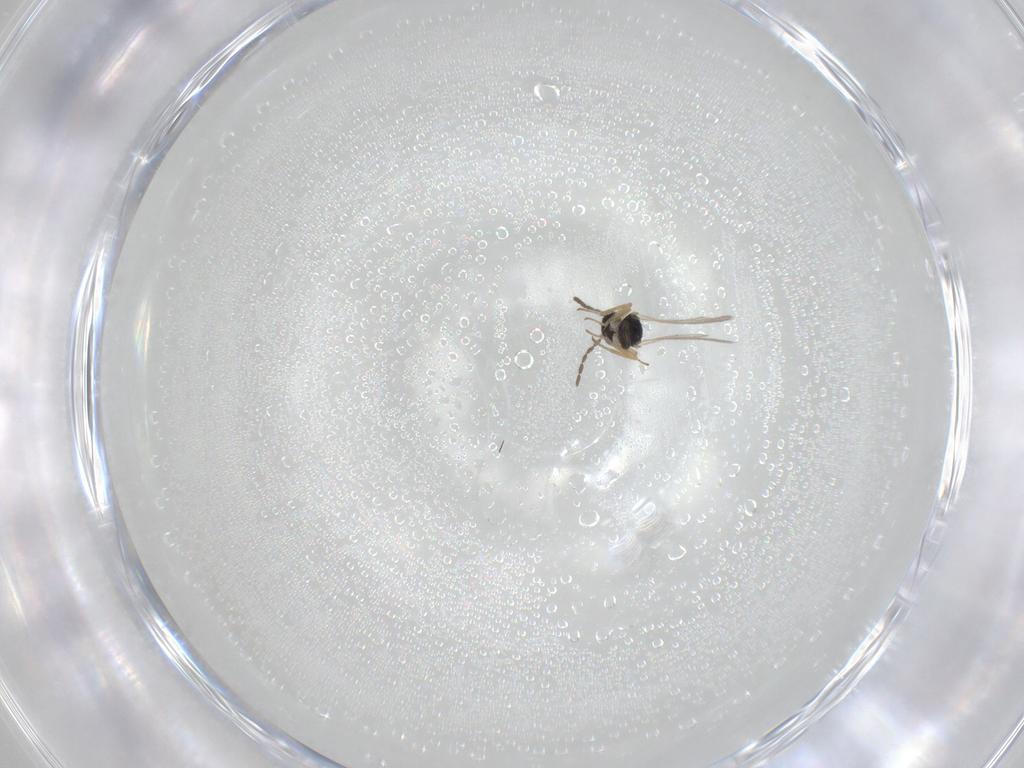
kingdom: Animalia
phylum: Arthropoda
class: Insecta
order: Hymenoptera
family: Eulophidae
